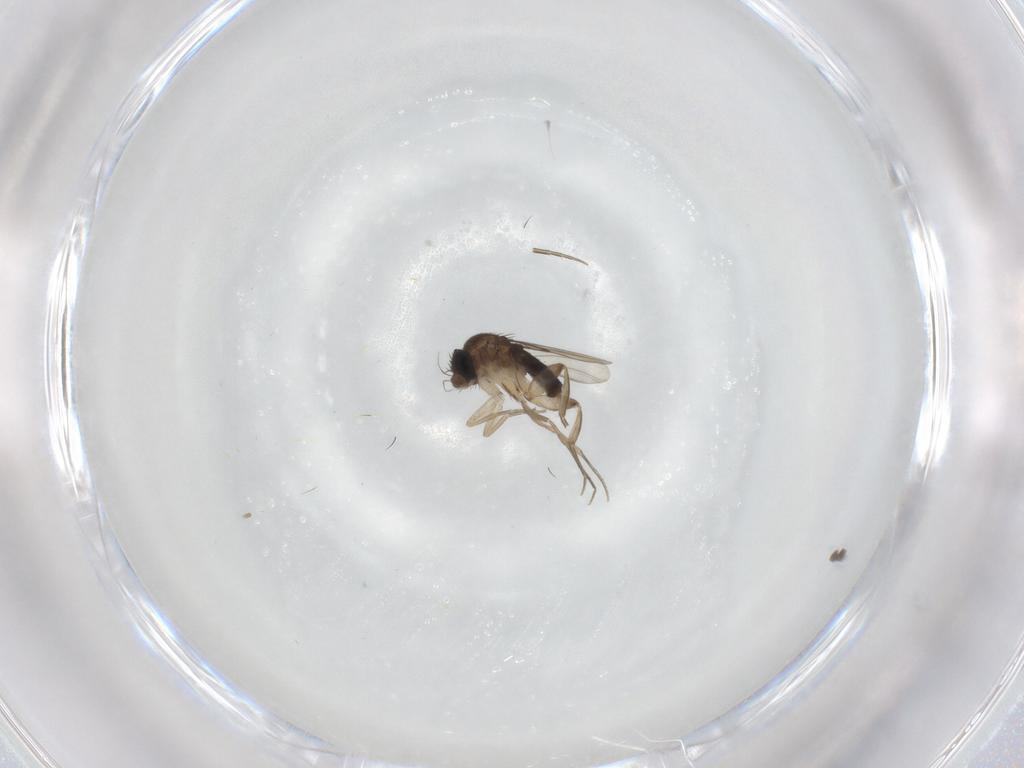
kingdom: Animalia
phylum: Arthropoda
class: Insecta
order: Diptera
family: Phoridae
